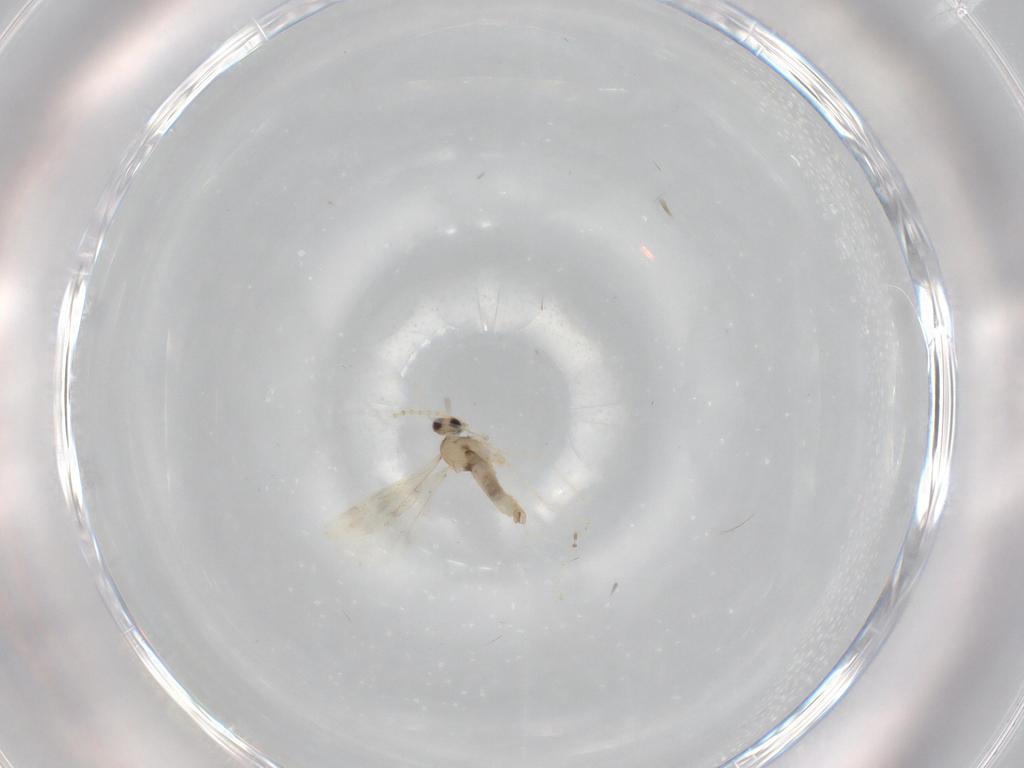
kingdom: Animalia
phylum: Arthropoda
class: Insecta
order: Diptera
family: Cecidomyiidae
